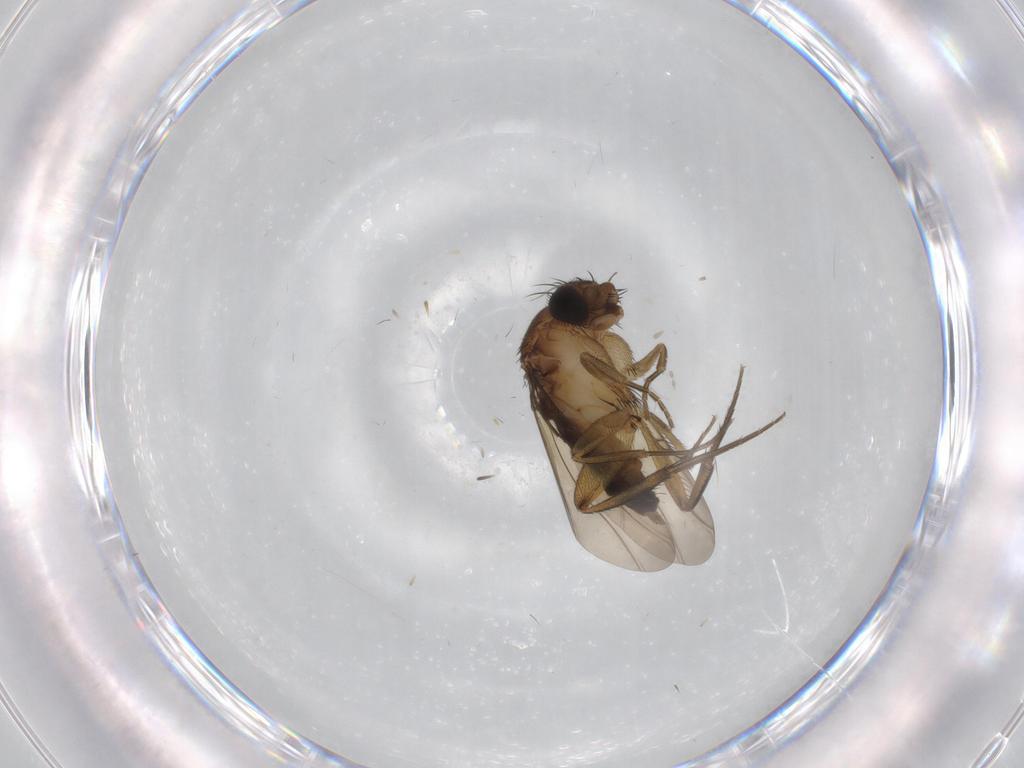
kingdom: Animalia
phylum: Arthropoda
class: Insecta
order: Diptera
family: Phoridae
